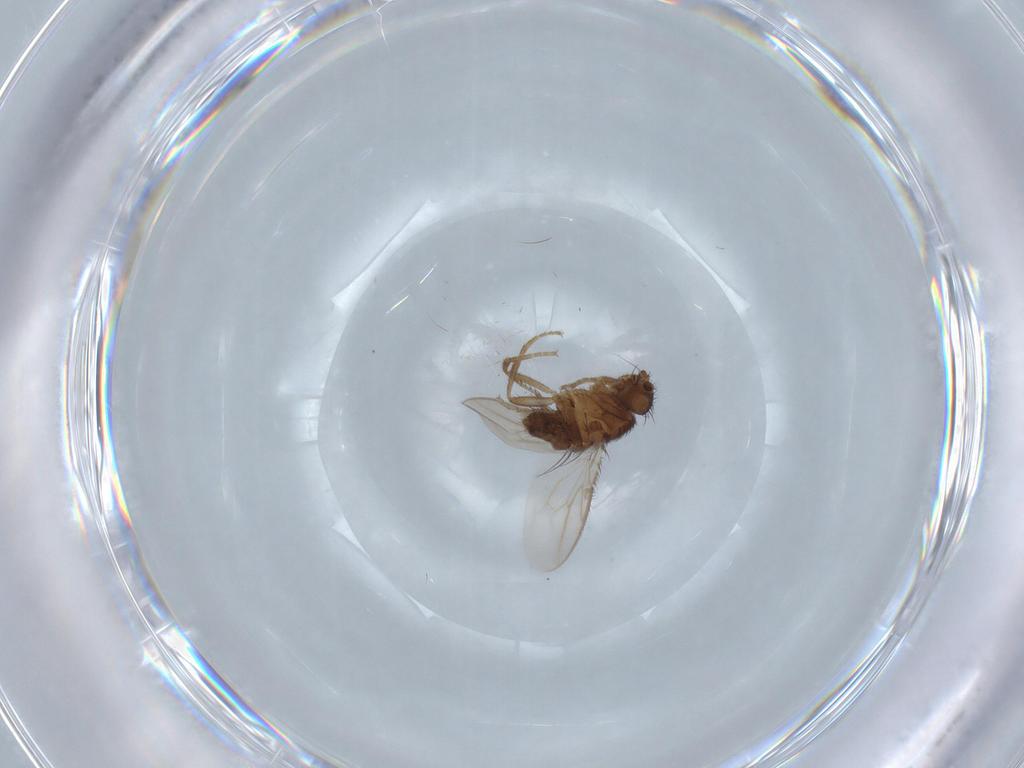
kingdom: Animalia
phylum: Arthropoda
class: Insecta
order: Diptera
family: Sphaeroceridae
